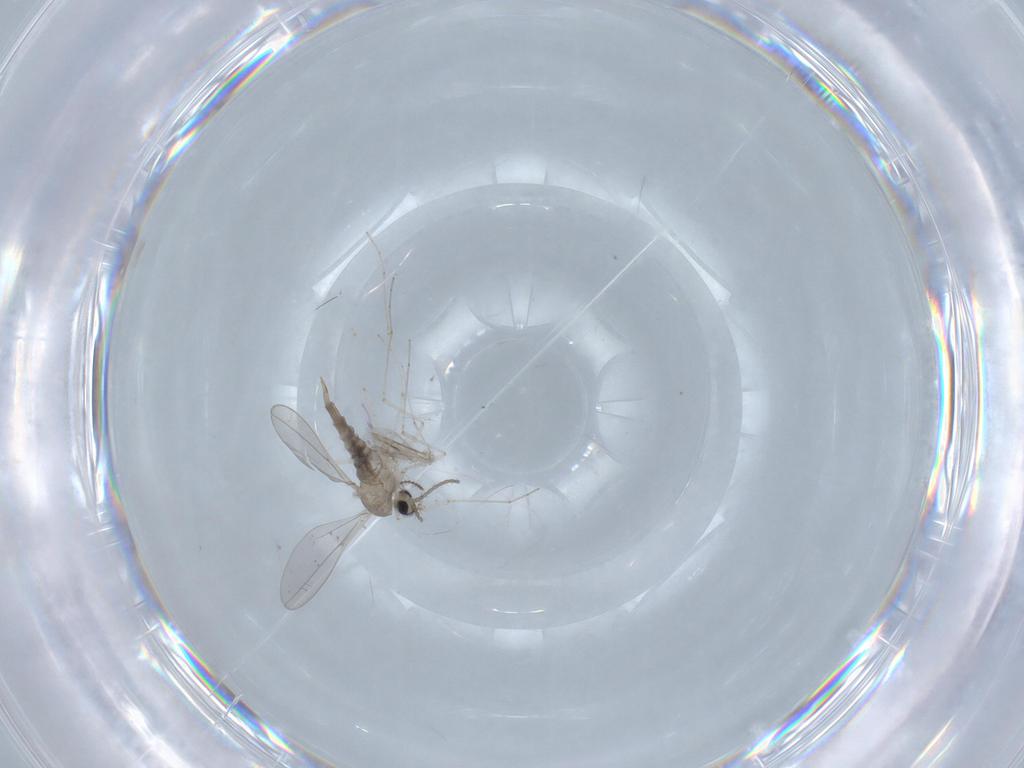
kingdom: Animalia
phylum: Arthropoda
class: Insecta
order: Diptera
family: Cecidomyiidae
